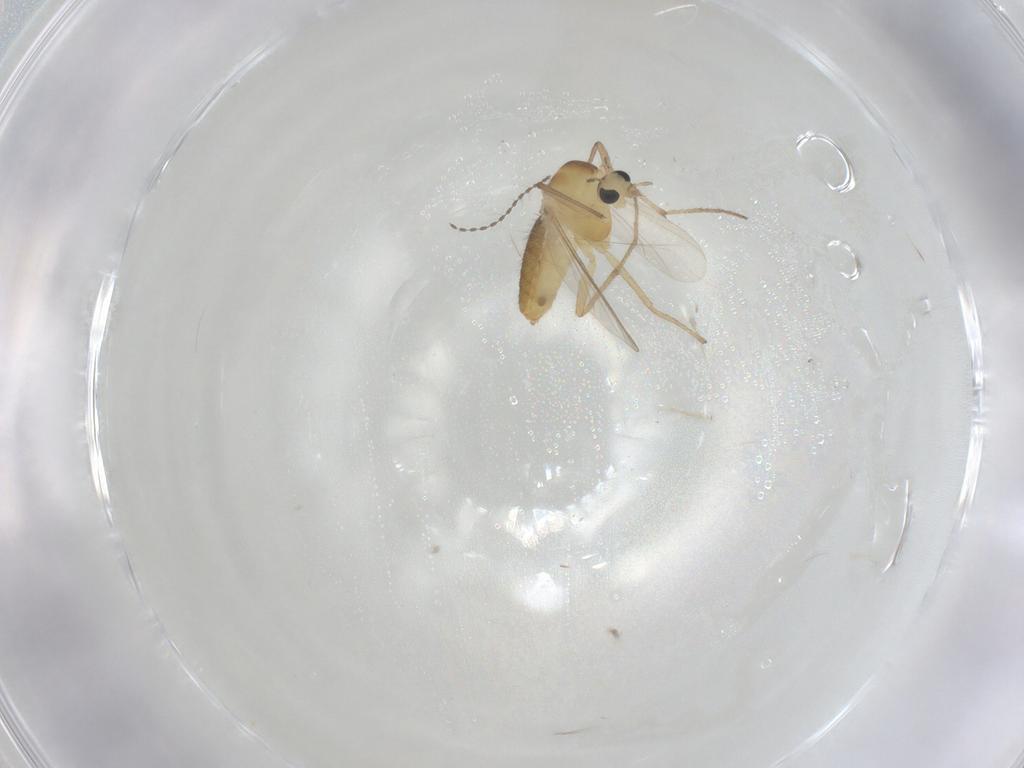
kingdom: Animalia
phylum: Arthropoda
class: Insecta
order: Diptera
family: Chironomidae
